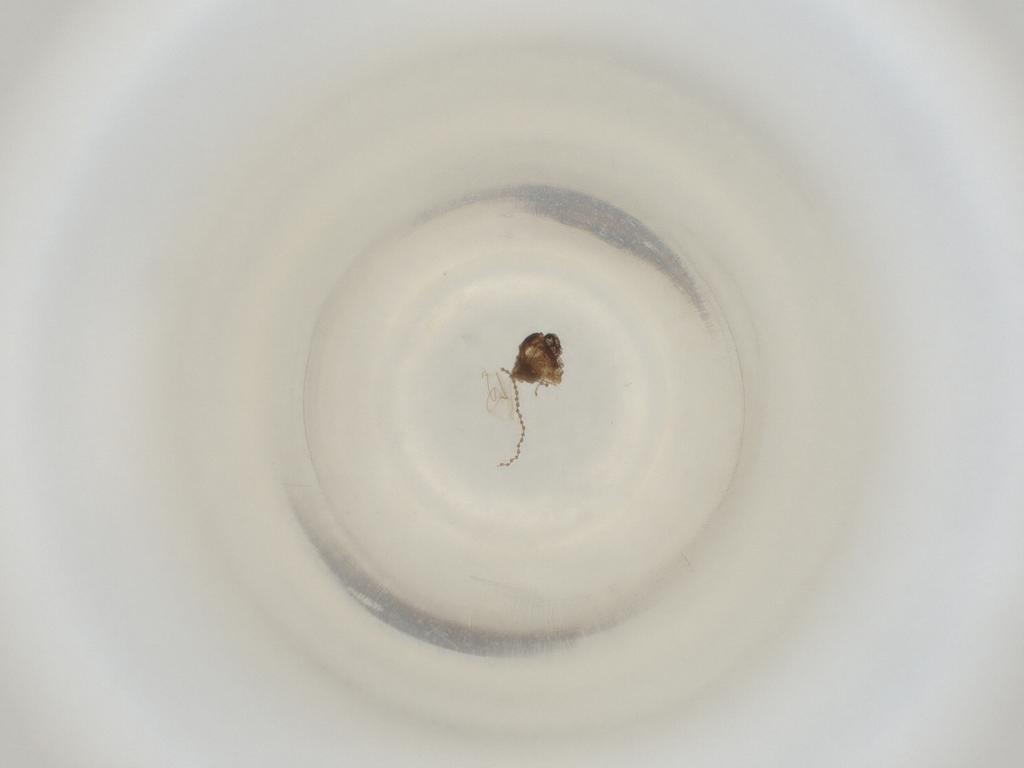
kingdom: Animalia
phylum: Arthropoda
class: Insecta
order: Diptera
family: Cecidomyiidae
